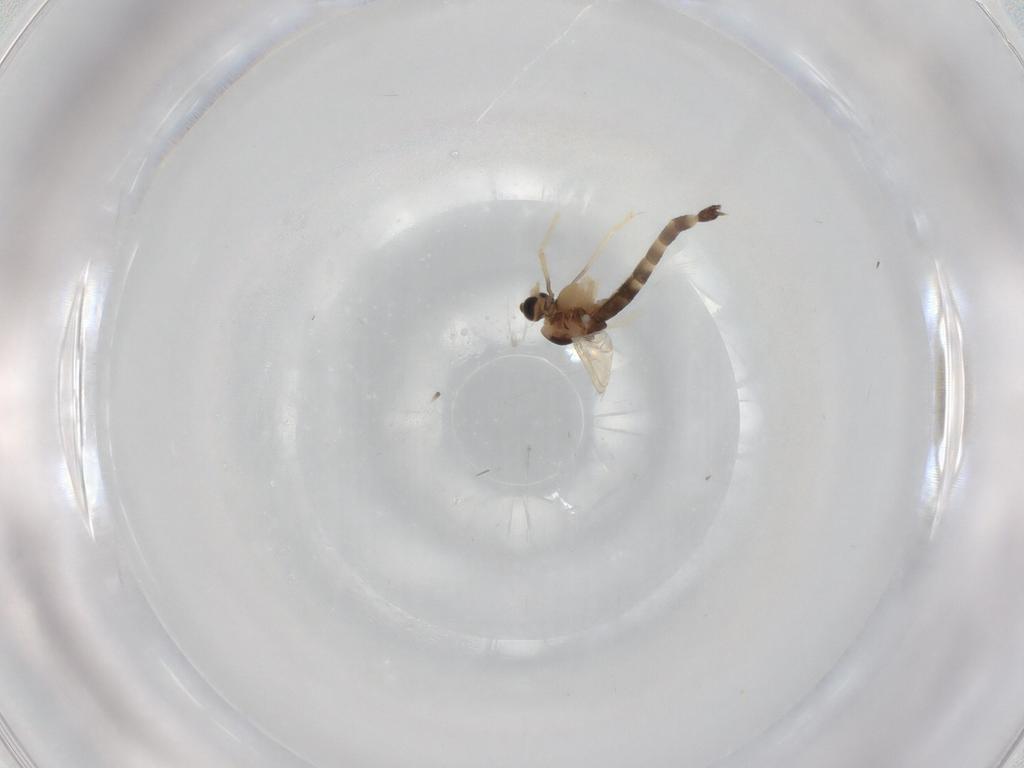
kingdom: Animalia
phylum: Arthropoda
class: Insecta
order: Diptera
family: Chironomidae
